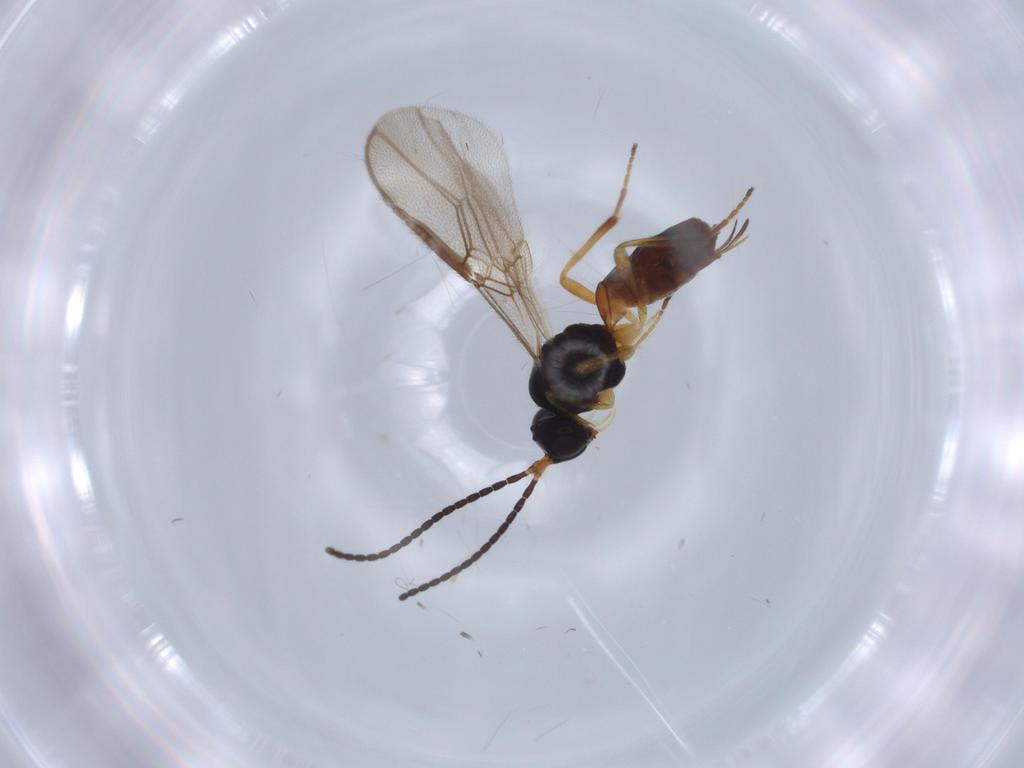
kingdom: Animalia
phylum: Arthropoda
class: Insecta
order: Hymenoptera
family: Braconidae
